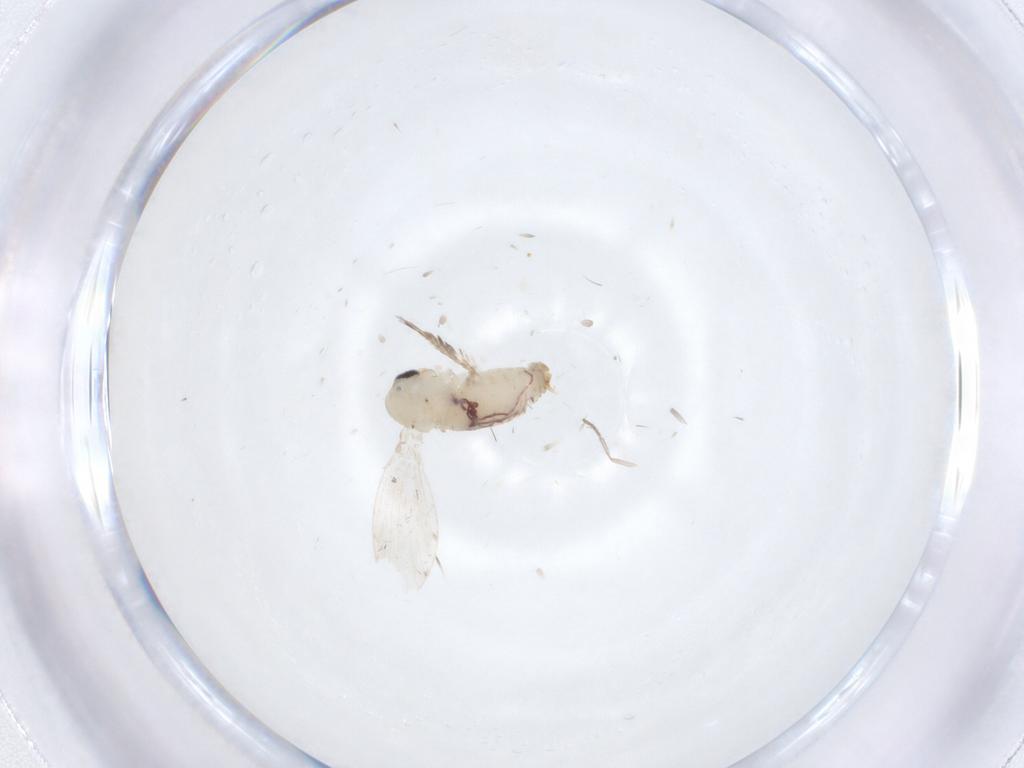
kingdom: Animalia
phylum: Arthropoda
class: Insecta
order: Diptera
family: Psychodidae
